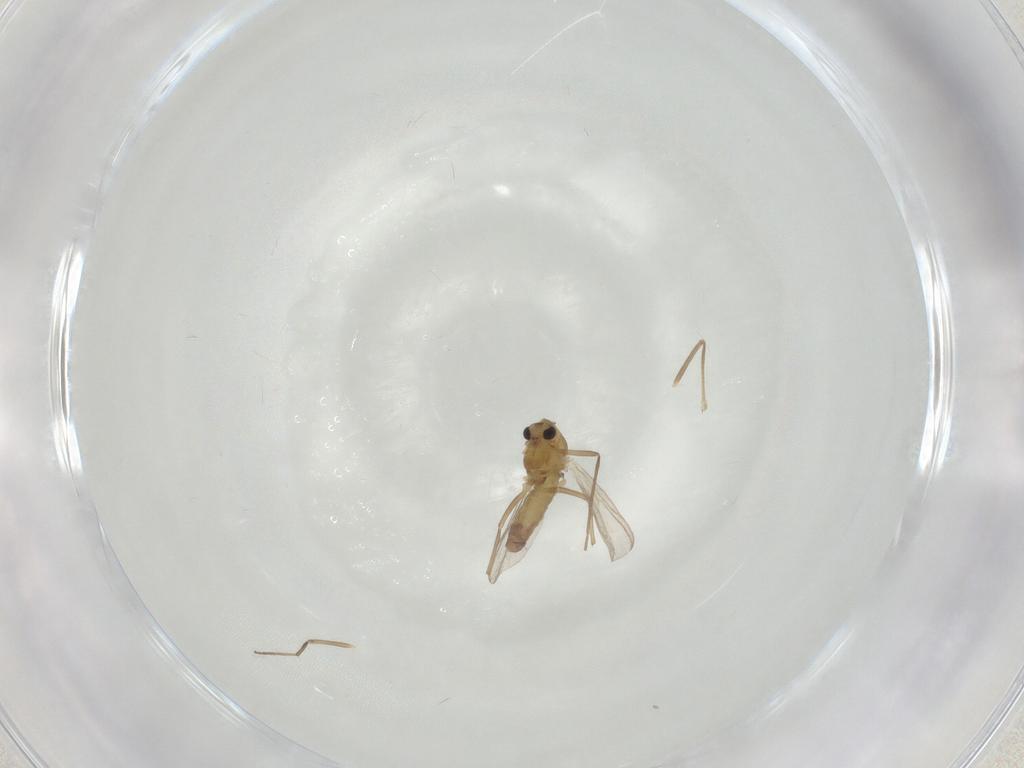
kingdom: Animalia
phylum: Arthropoda
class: Insecta
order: Diptera
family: Chironomidae
